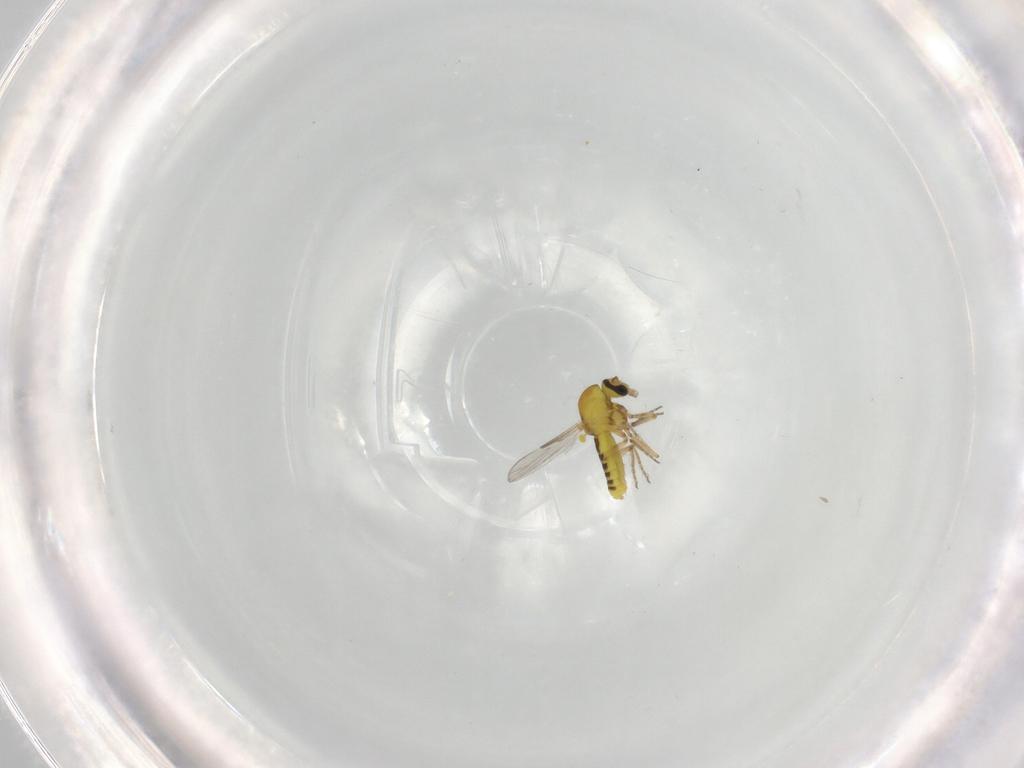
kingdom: Animalia
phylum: Arthropoda
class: Insecta
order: Diptera
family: Ceratopogonidae
